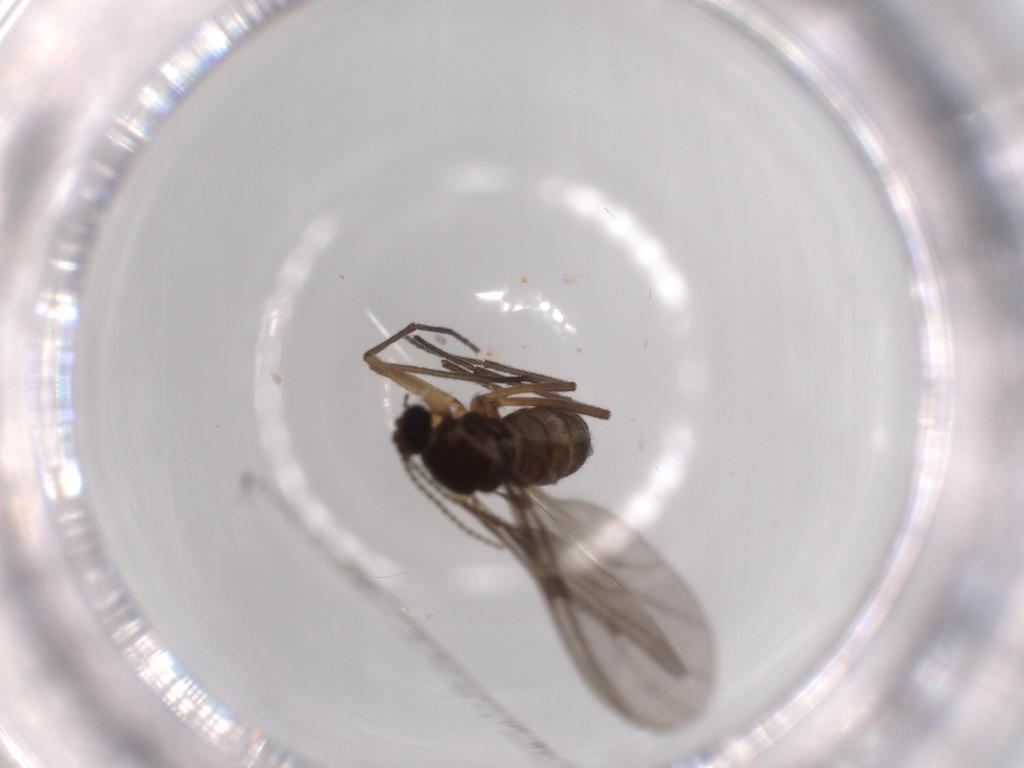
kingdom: Animalia
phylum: Arthropoda
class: Insecta
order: Diptera
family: Sciaridae
